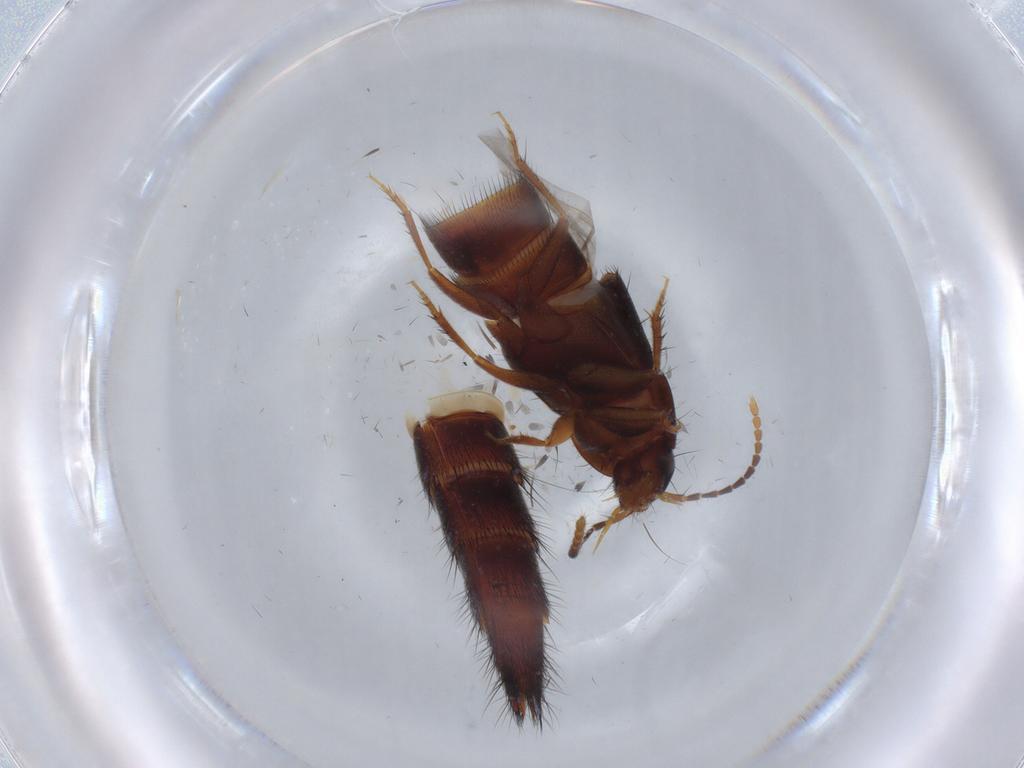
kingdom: Animalia
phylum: Arthropoda
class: Insecta
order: Coleoptera
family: Staphylinidae
